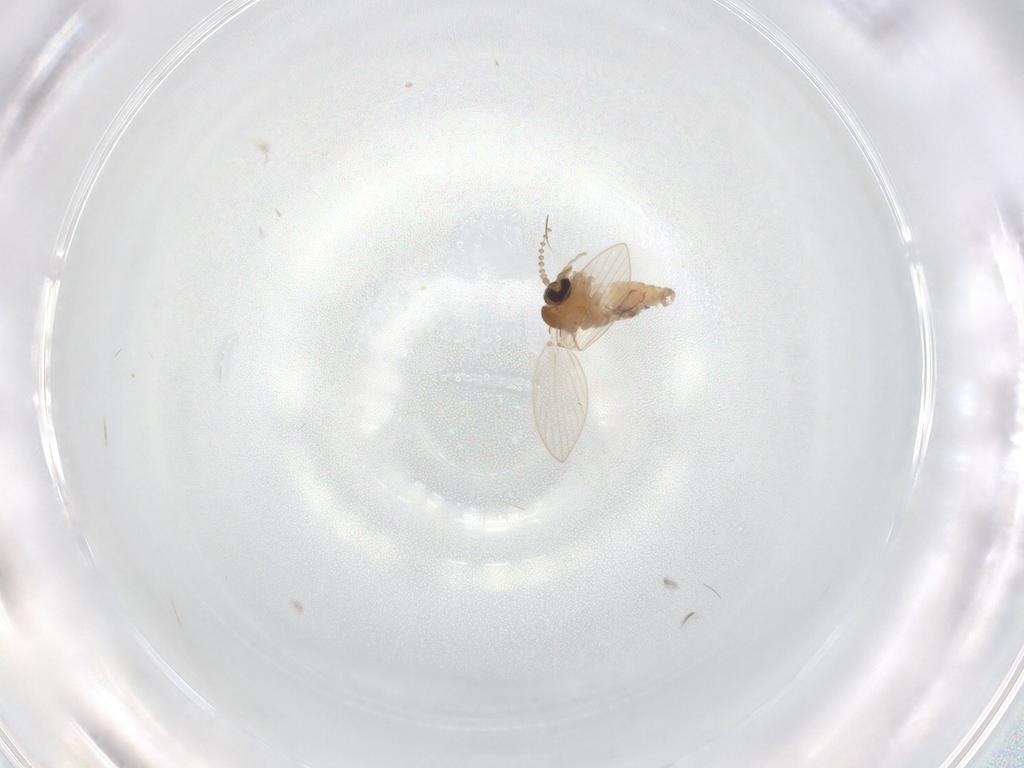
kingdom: Animalia
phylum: Arthropoda
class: Insecta
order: Diptera
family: Psychodidae
